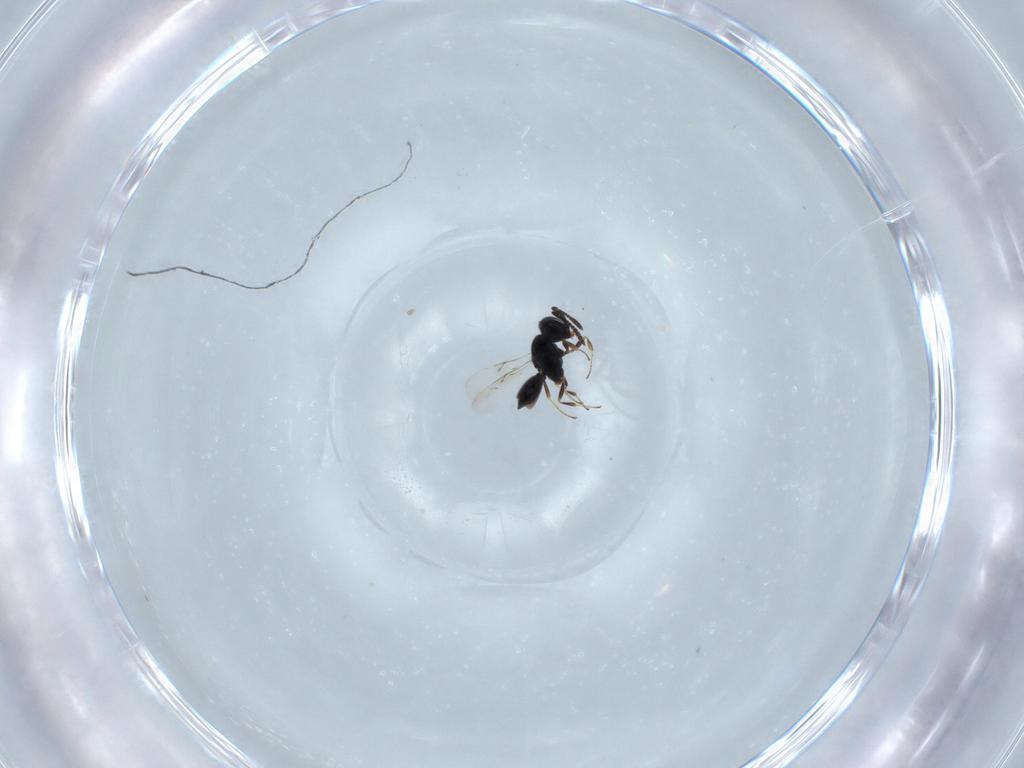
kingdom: Animalia
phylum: Arthropoda
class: Insecta
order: Hymenoptera
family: Scelionidae
